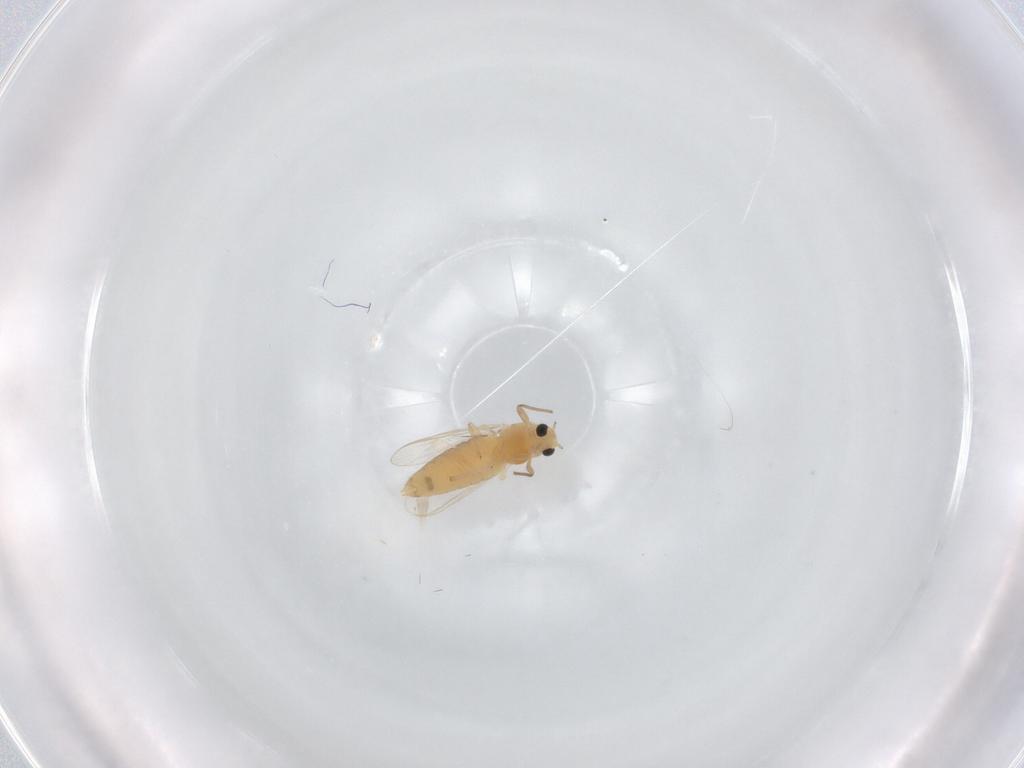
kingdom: Animalia
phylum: Arthropoda
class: Insecta
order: Diptera
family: Chironomidae
